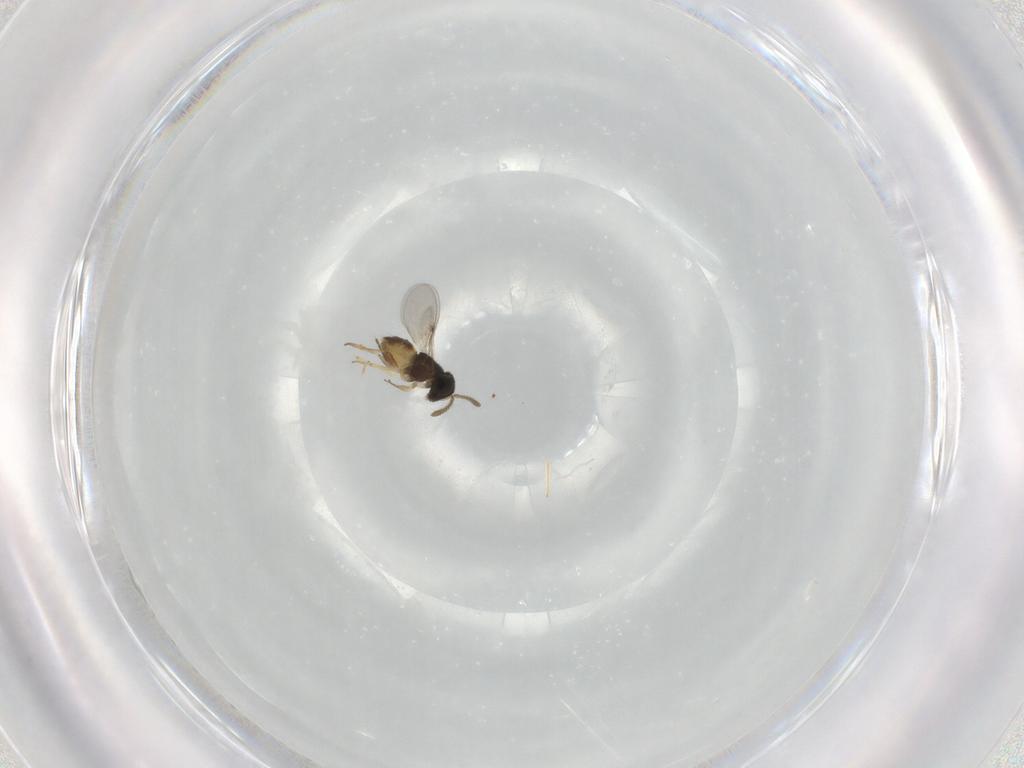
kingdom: Animalia
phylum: Arthropoda
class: Insecta
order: Hymenoptera
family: Encyrtidae
